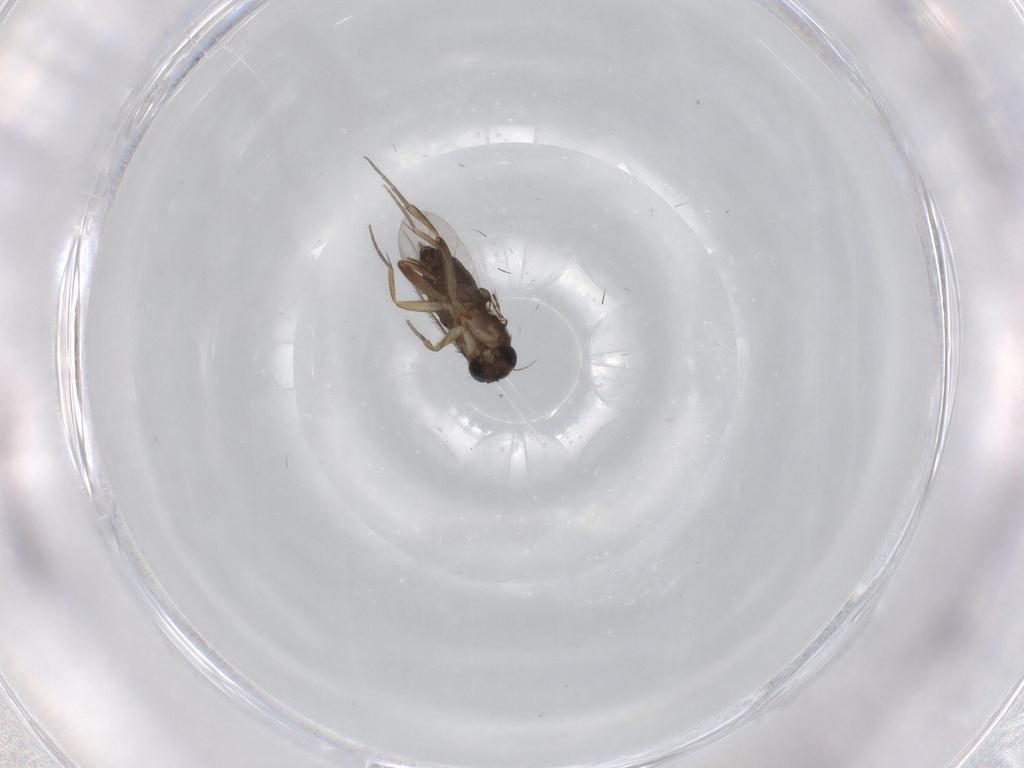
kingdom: Animalia
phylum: Arthropoda
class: Insecta
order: Diptera
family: Phoridae
